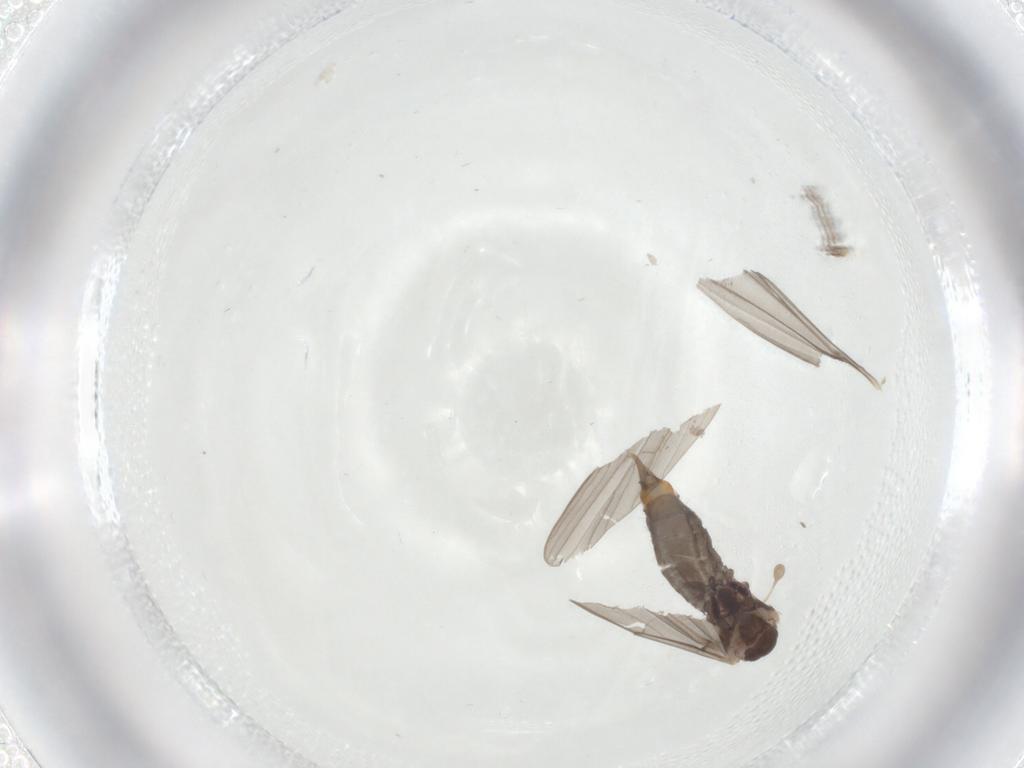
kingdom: Animalia
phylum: Arthropoda
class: Insecta
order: Diptera
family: Limoniidae
